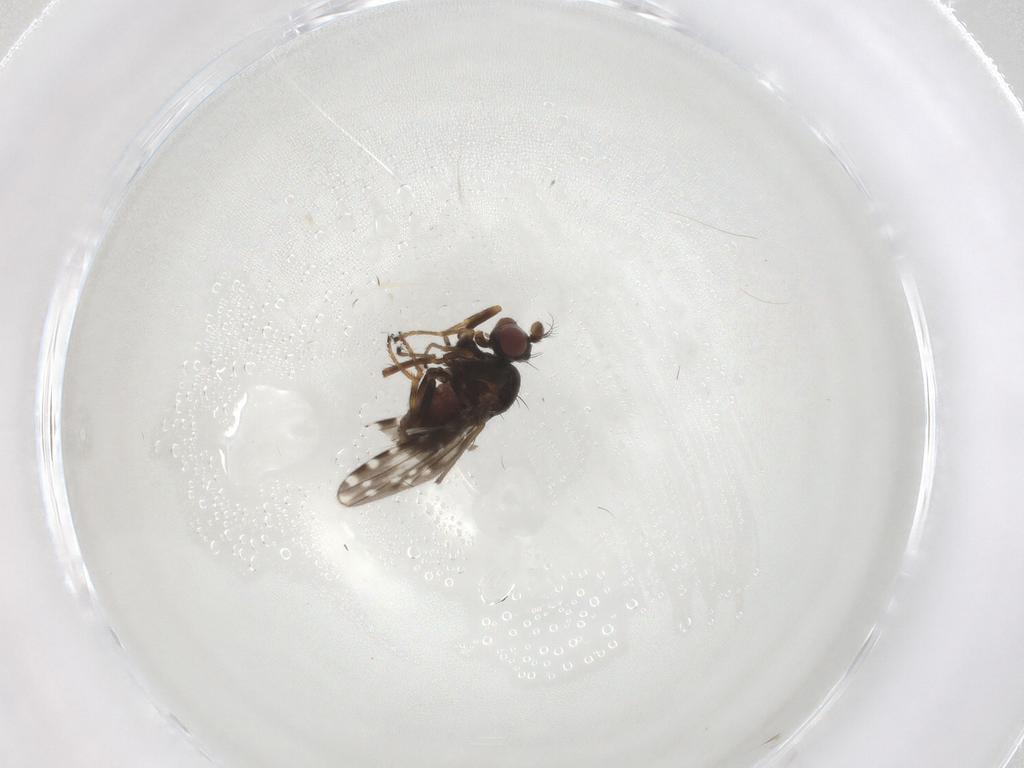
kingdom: Animalia
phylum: Arthropoda
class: Insecta
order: Diptera
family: Ephydridae
